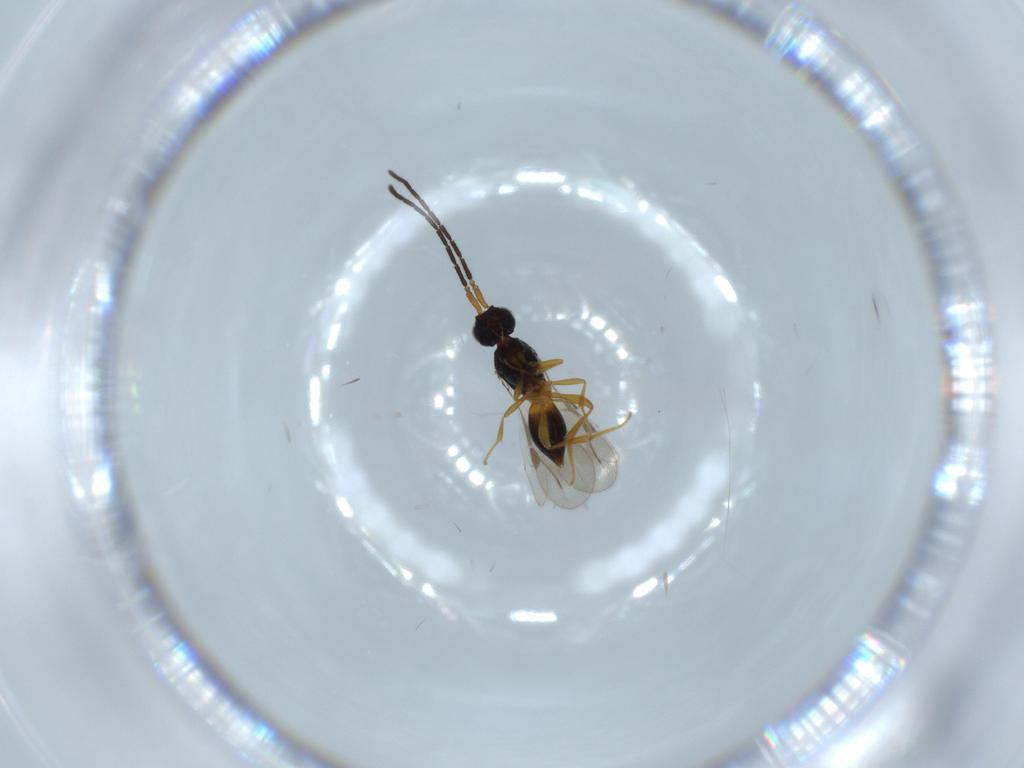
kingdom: Animalia
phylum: Arthropoda
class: Insecta
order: Hymenoptera
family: Megaspilidae
